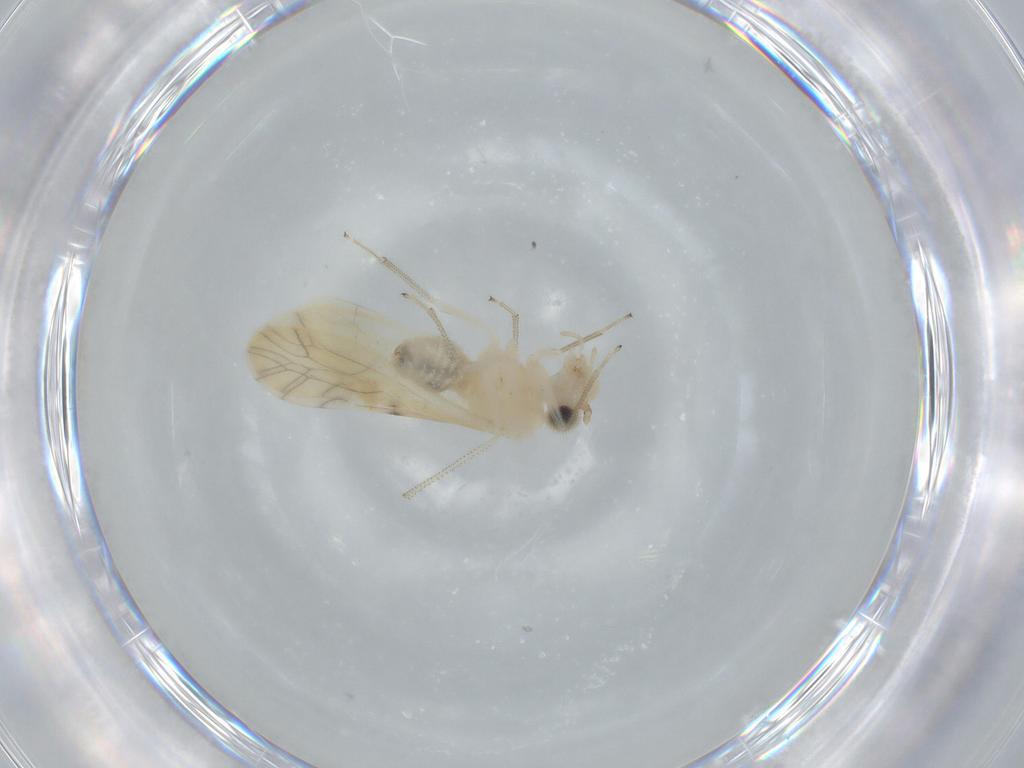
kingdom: Animalia
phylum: Arthropoda
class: Insecta
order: Psocodea
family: Caeciliusidae
